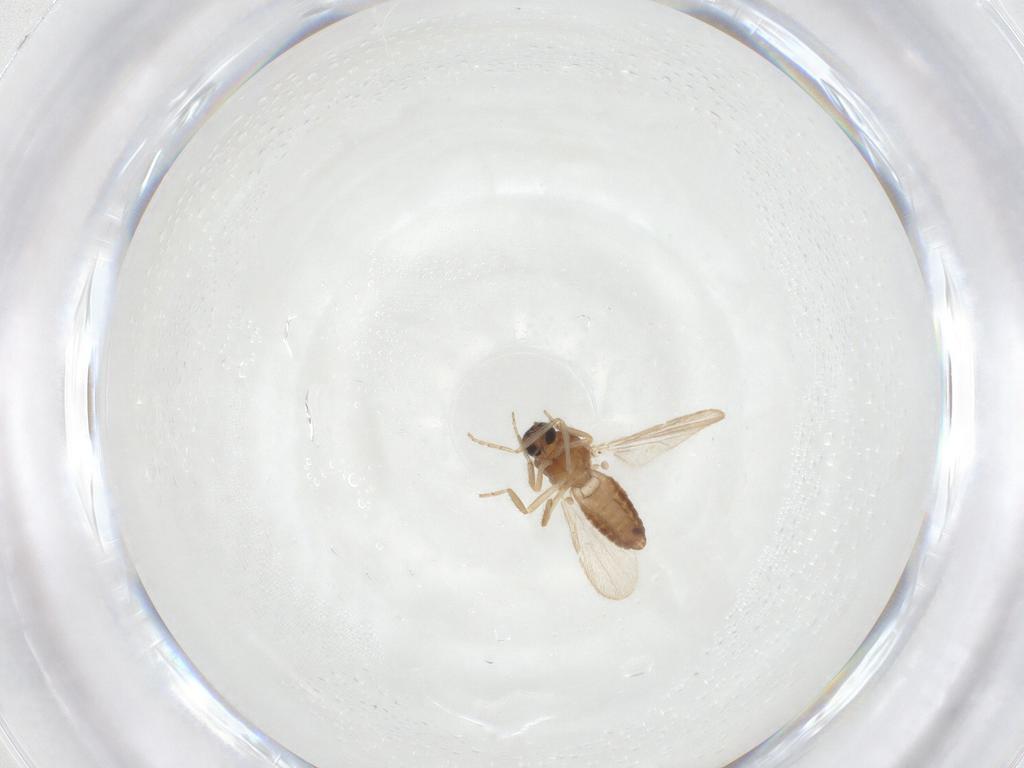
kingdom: Animalia
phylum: Arthropoda
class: Insecta
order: Diptera
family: Ceratopogonidae
